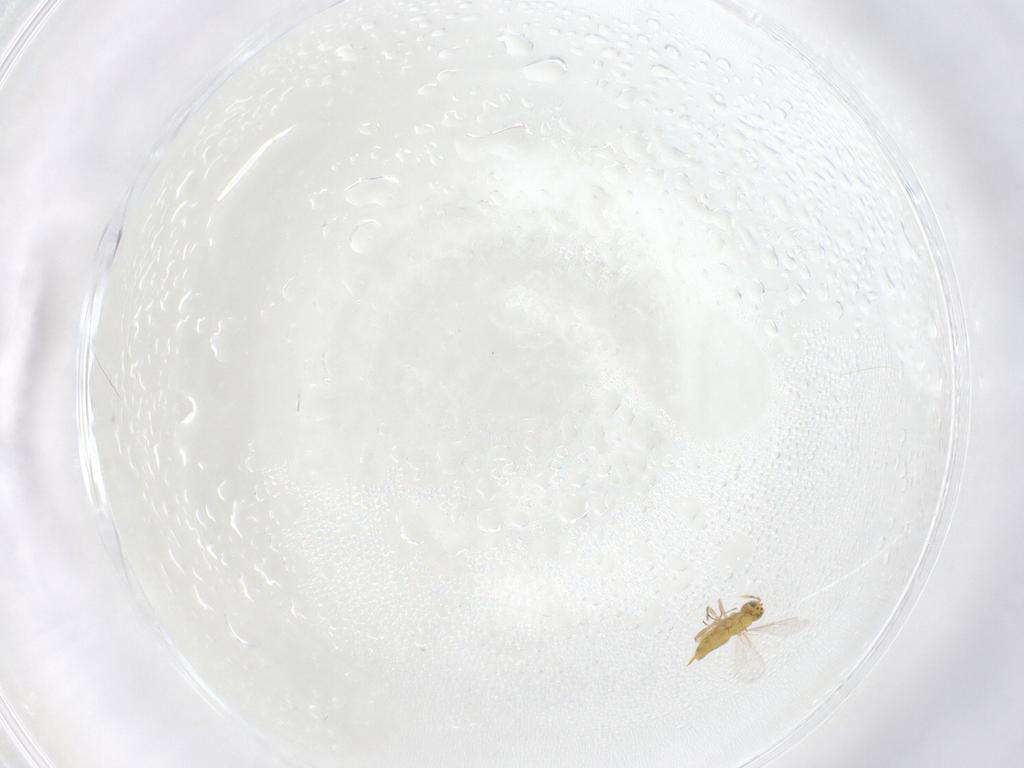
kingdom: Animalia
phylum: Arthropoda
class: Insecta
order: Hymenoptera
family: Aphelinidae
